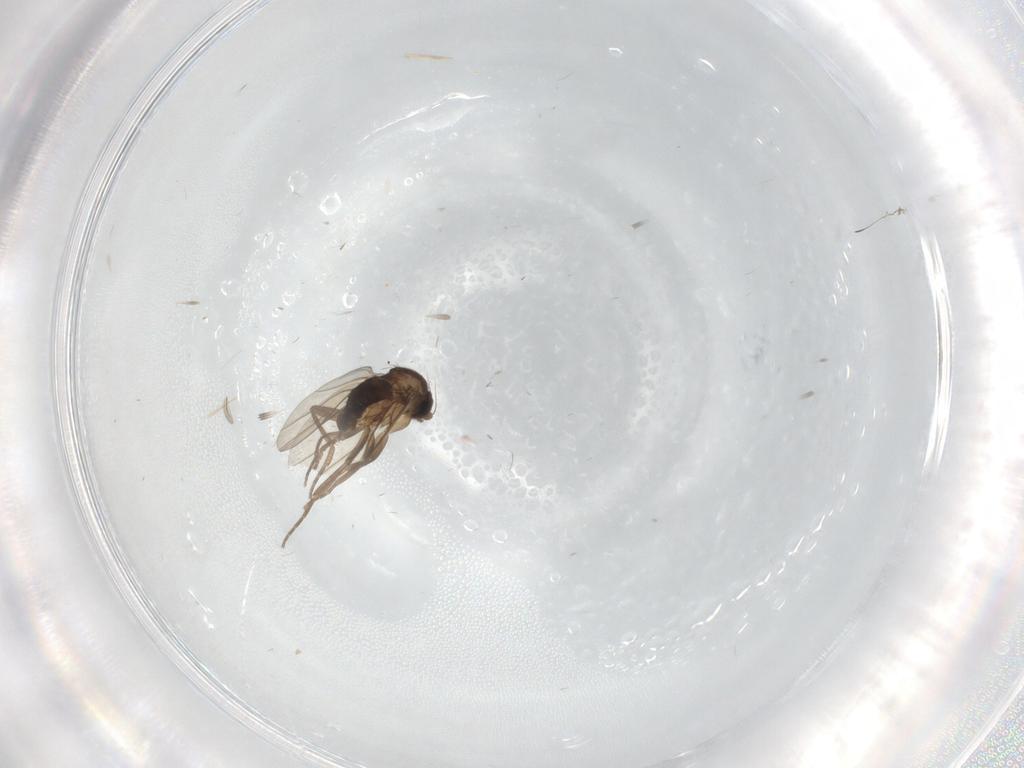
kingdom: Animalia
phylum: Arthropoda
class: Insecta
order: Diptera
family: Phoridae
